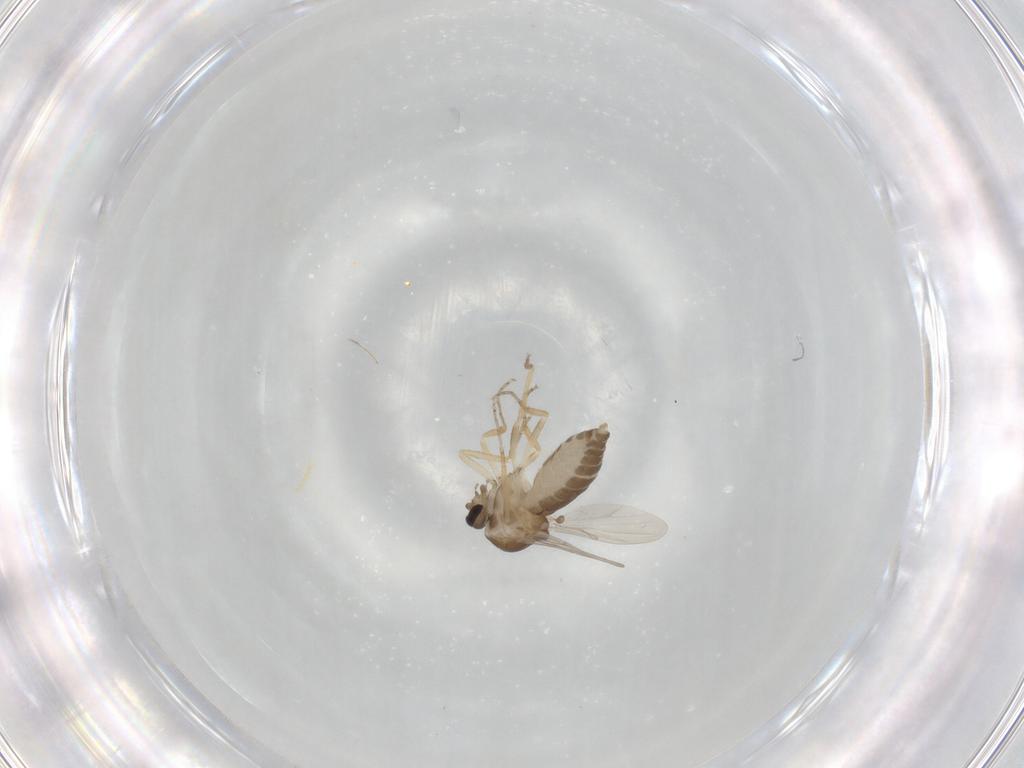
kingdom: Animalia
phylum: Arthropoda
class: Insecta
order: Diptera
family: Ceratopogonidae
